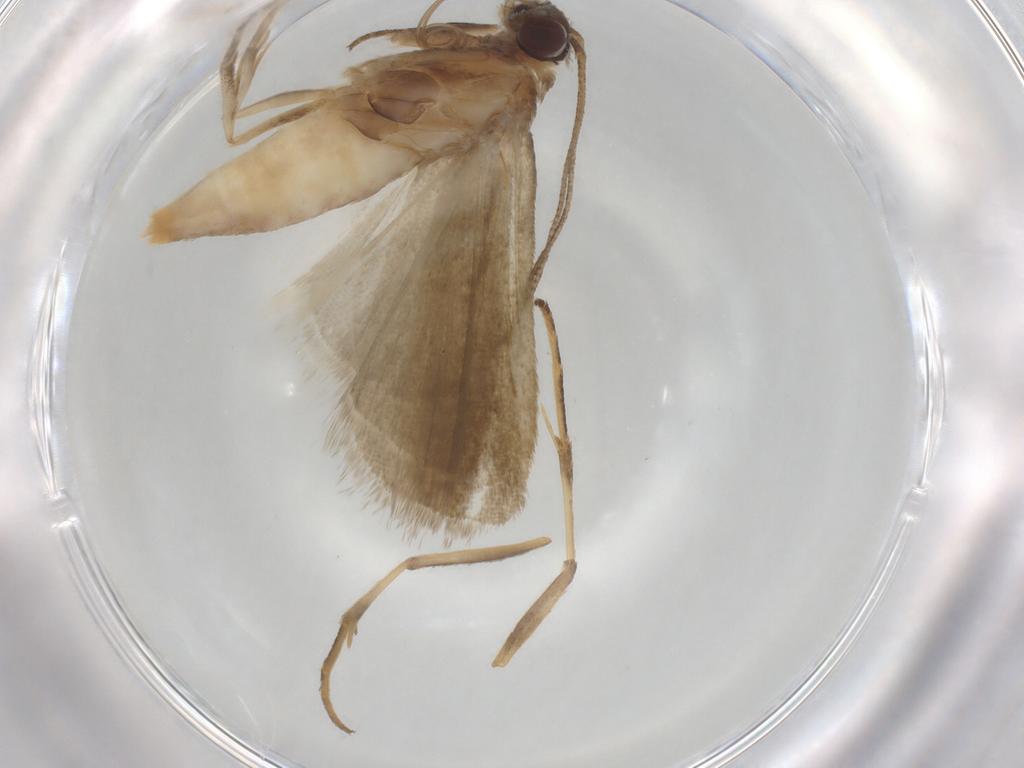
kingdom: Animalia
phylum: Arthropoda
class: Insecta
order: Lepidoptera
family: Noctuidae
